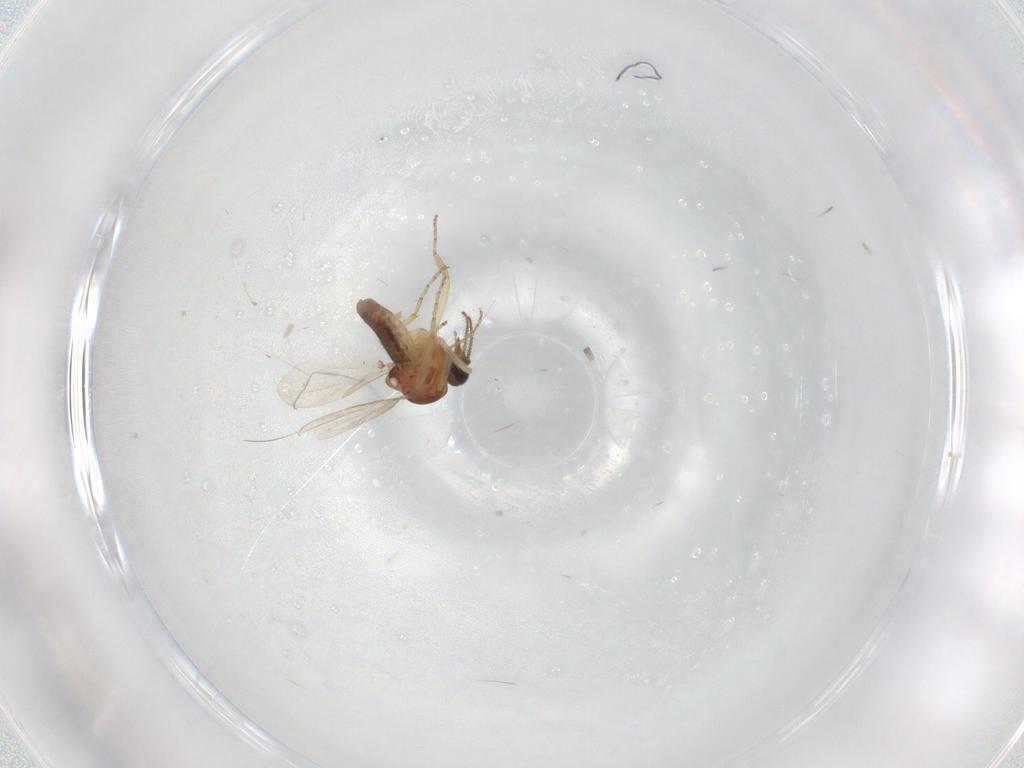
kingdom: Animalia
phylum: Arthropoda
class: Insecta
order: Diptera
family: Ceratopogonidae
